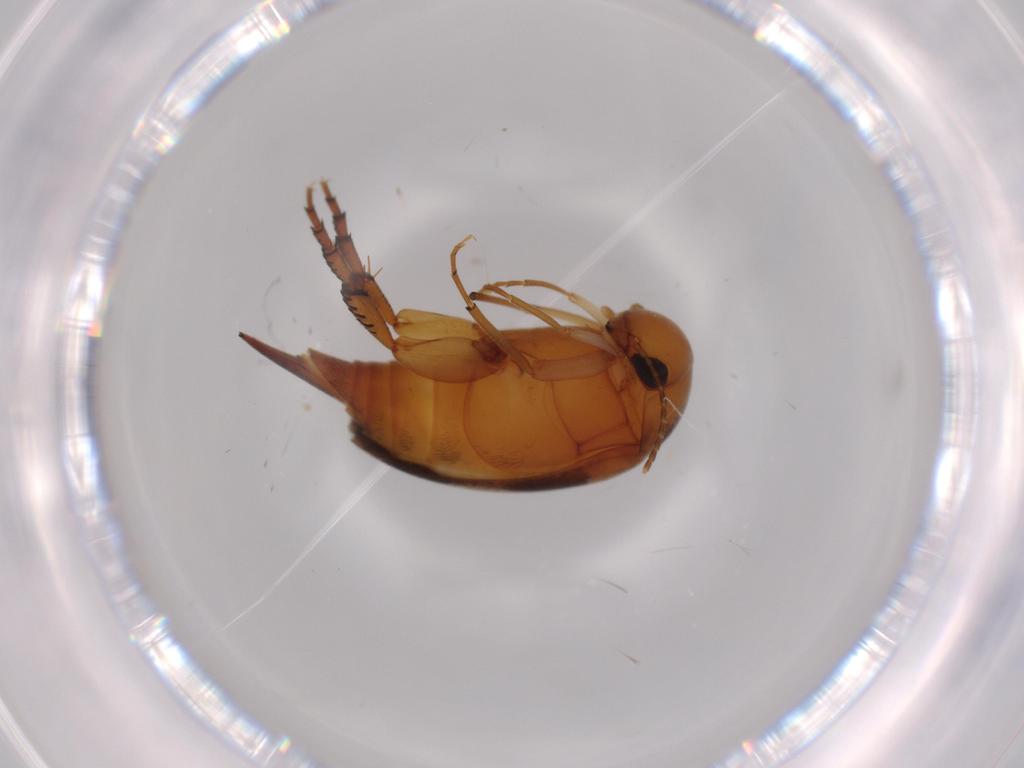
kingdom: Animalia
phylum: Arthropoda
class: Insecta
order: Coleoptera
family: Mordellidae
